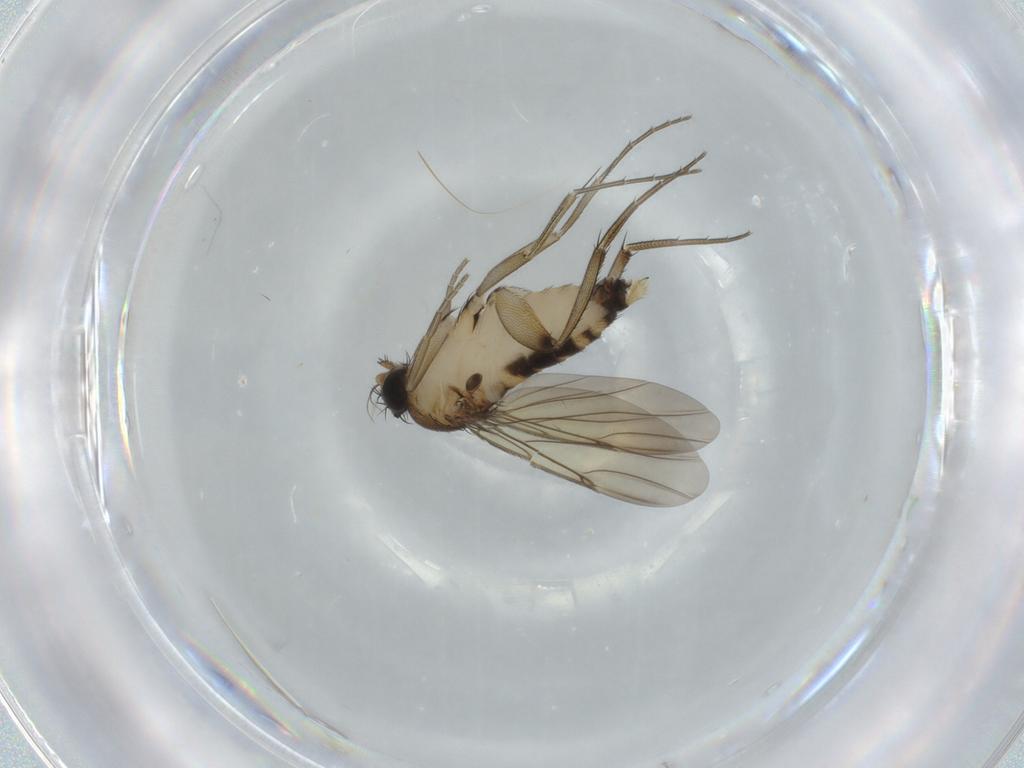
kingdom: Animalia
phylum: Arthropoda
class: Insecta
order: Diptera
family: Phoridae
